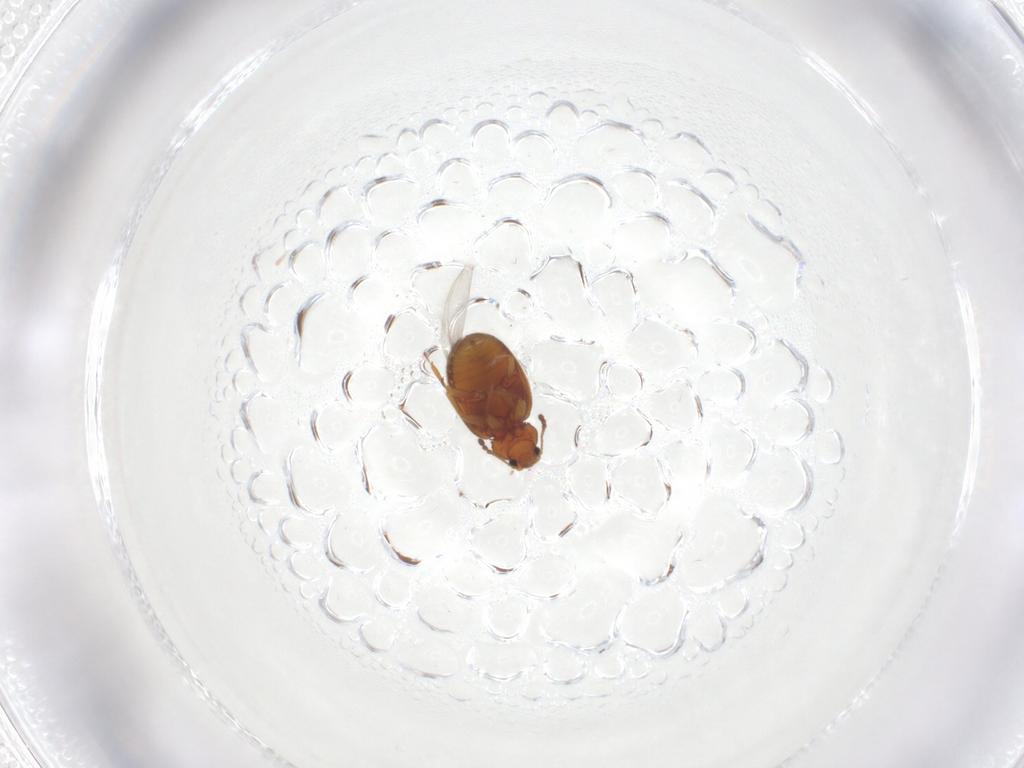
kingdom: Animalia
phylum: Arthropoda
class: Insecta
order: Coleoptera
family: Latridiidae
